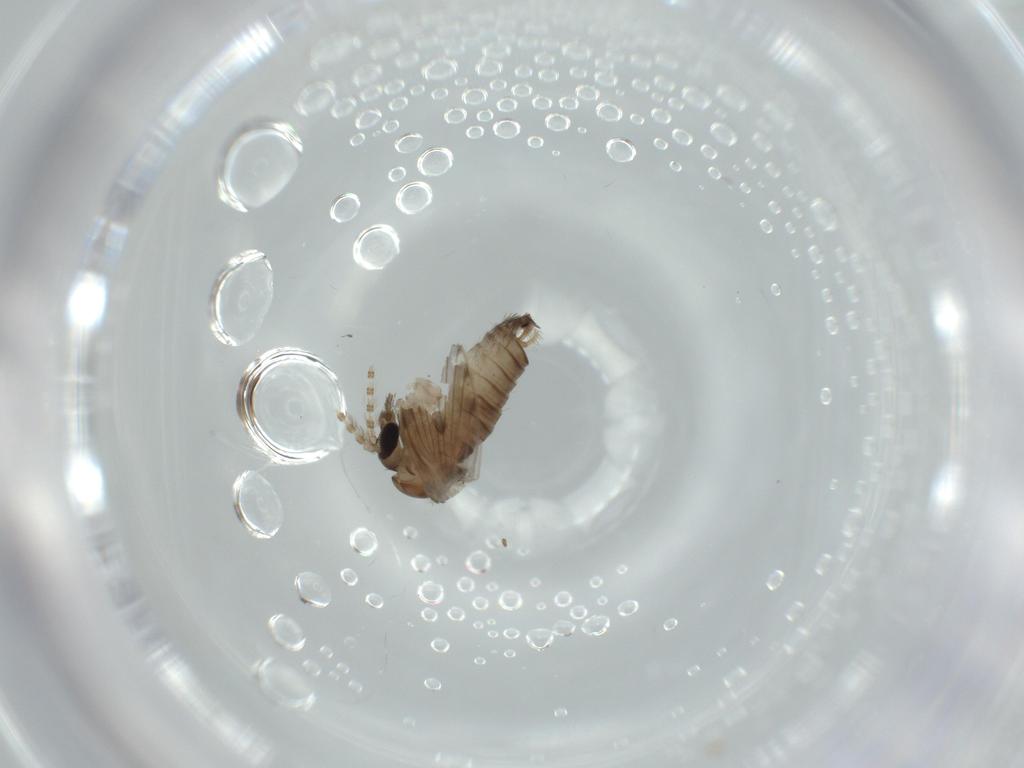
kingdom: Animalia
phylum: Arthropoda
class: Insecta
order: Diptera
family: Psychodidae
